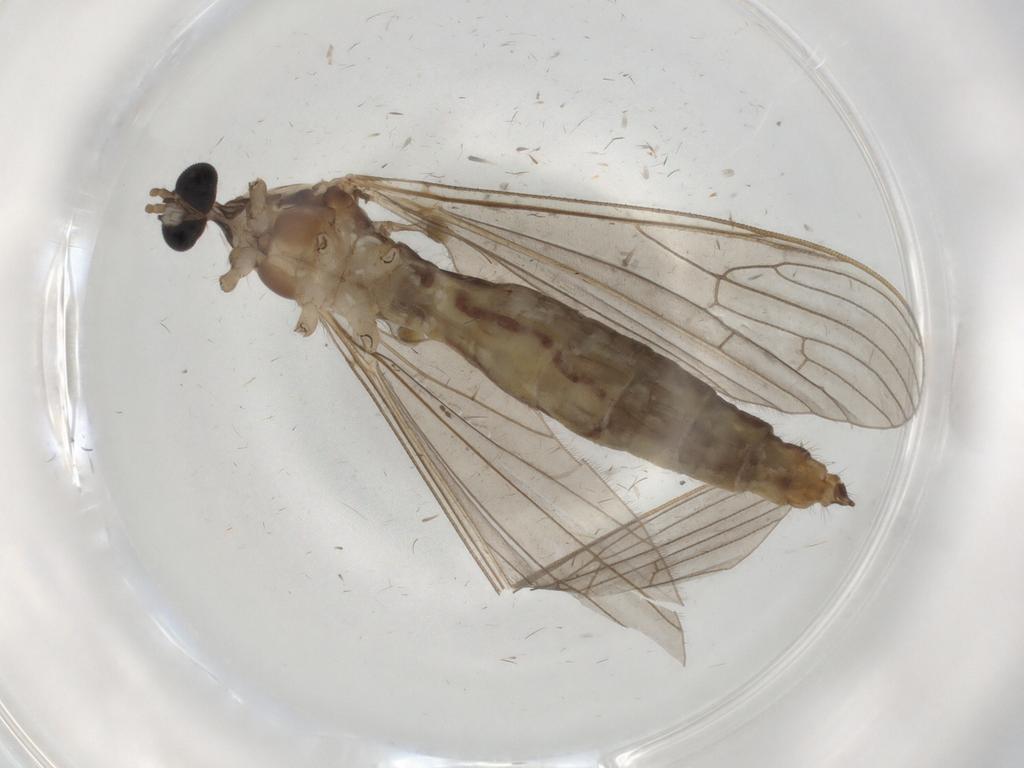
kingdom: Animalia
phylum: Arthropoda
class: Insecta
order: Diptera
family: Cecidomyiidae
